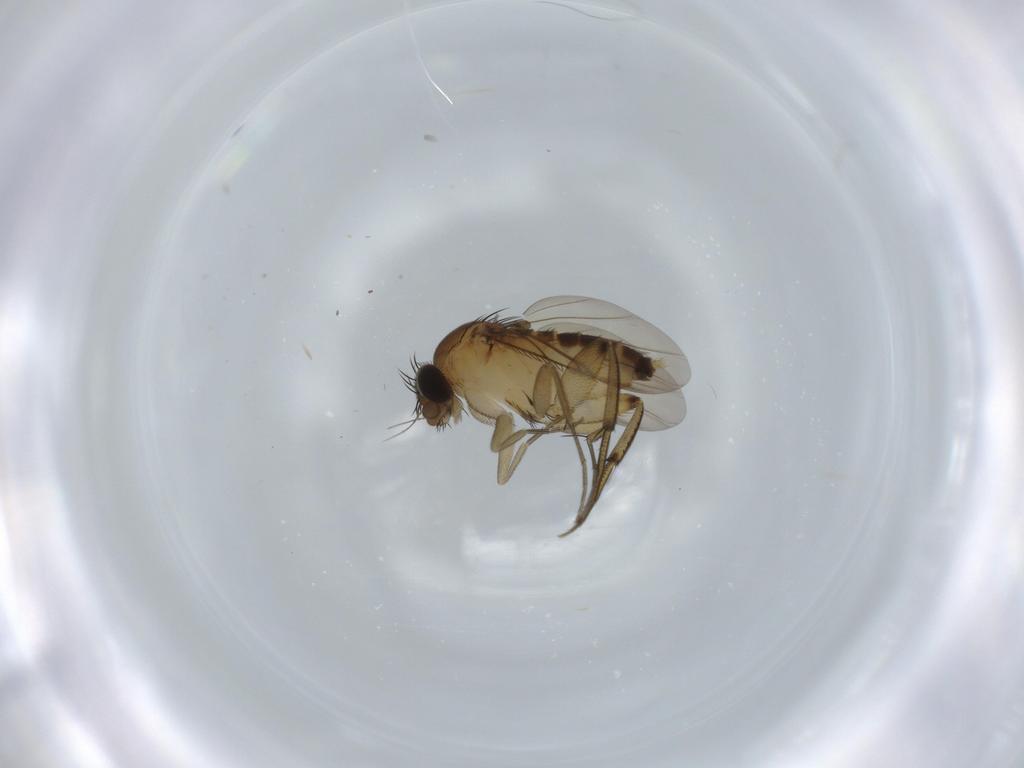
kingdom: Animalia
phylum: Arthropoda
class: Insecta
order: Diptera
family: Phoridae
